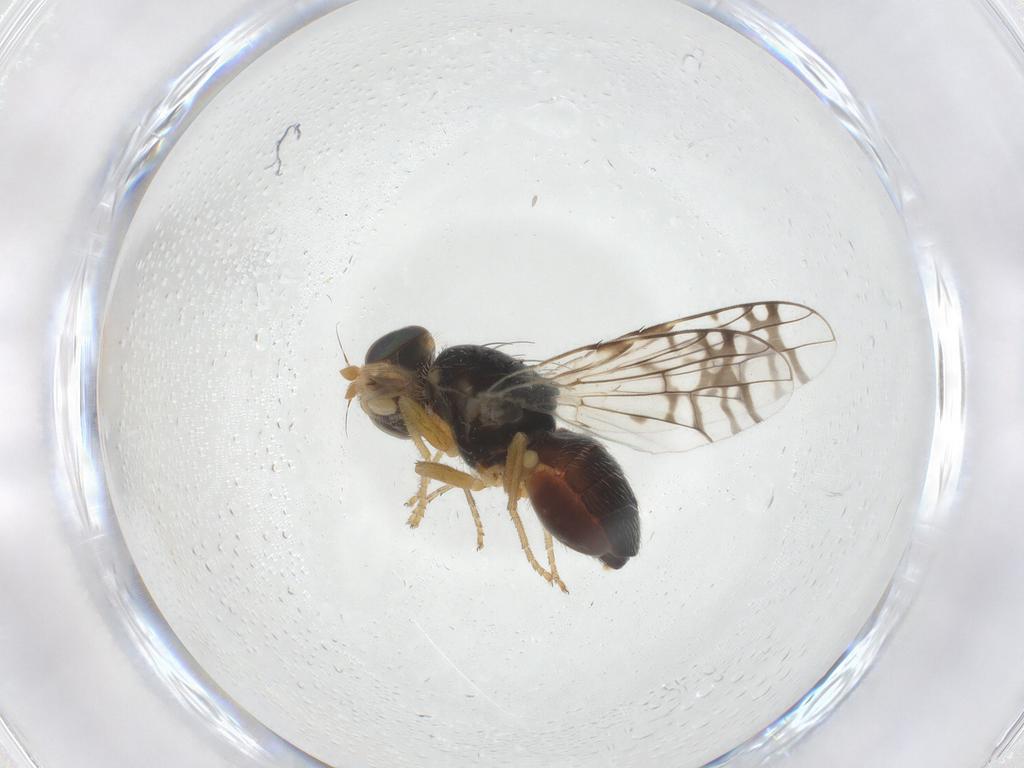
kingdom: Animalia
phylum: Arthropoda
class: Insecta
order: Diptera
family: Tephritidae
